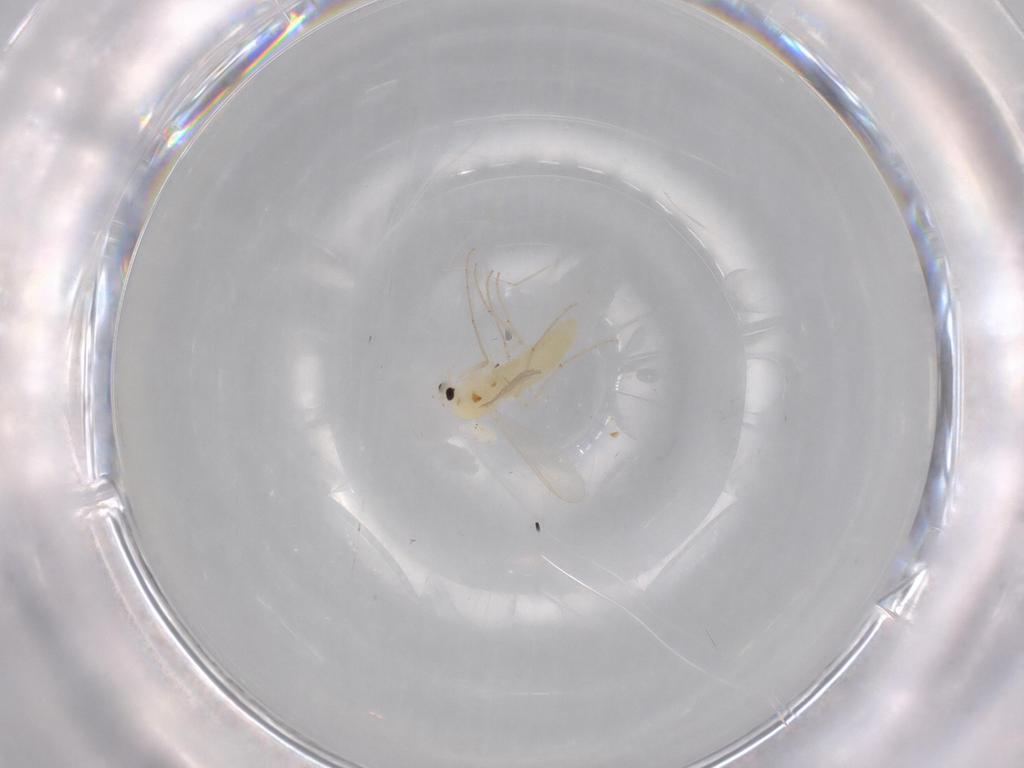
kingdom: Animalia
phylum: Arthropoda
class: Insecta
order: Diptera
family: Chironomidae
